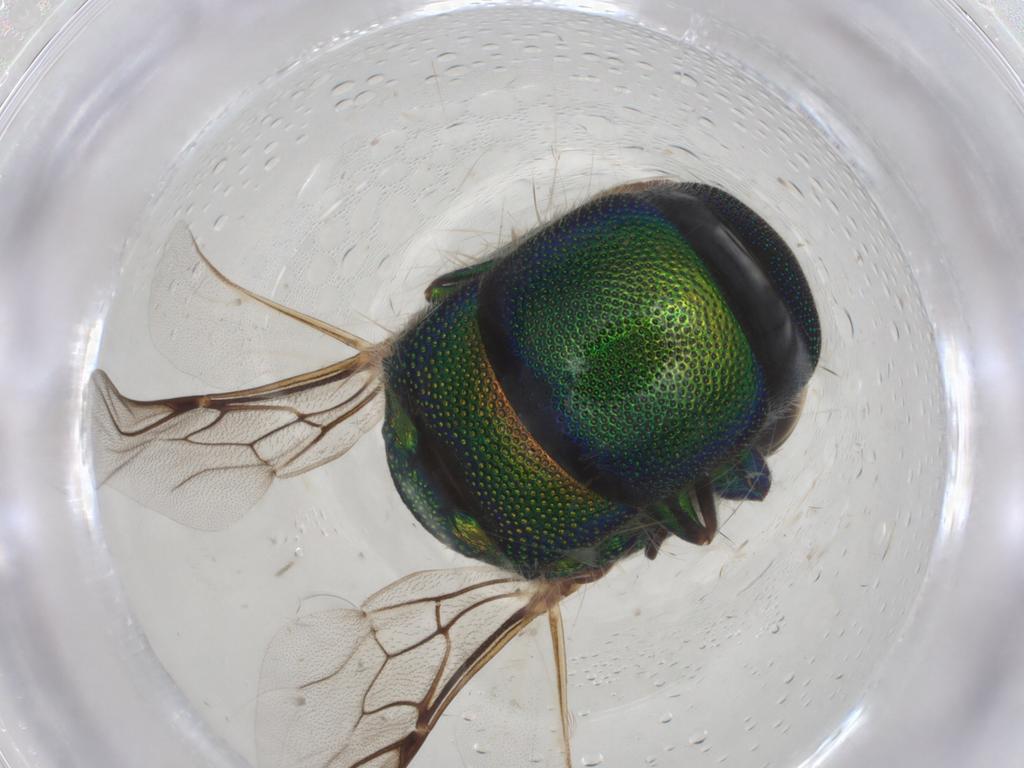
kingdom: Animalia
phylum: Arthropoda
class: Insecta
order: Hymenoptera
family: Chrysididae
